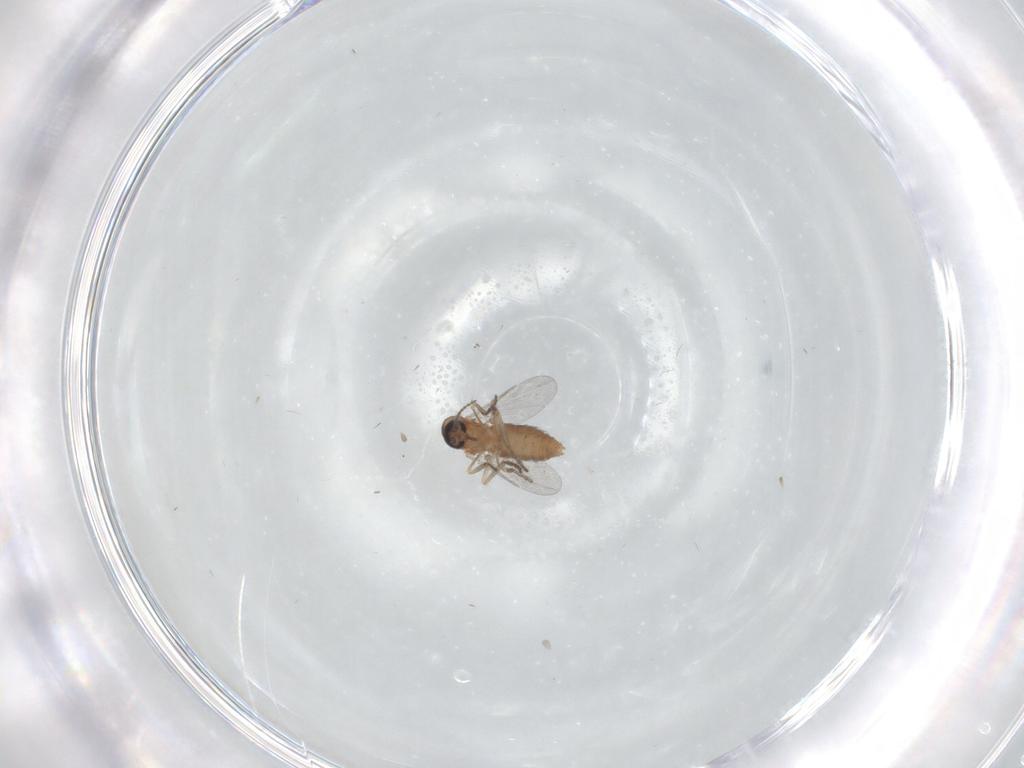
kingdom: Animalia
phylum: Arthropoda
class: Insecta
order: Diptera
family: Ceratopogonidae
